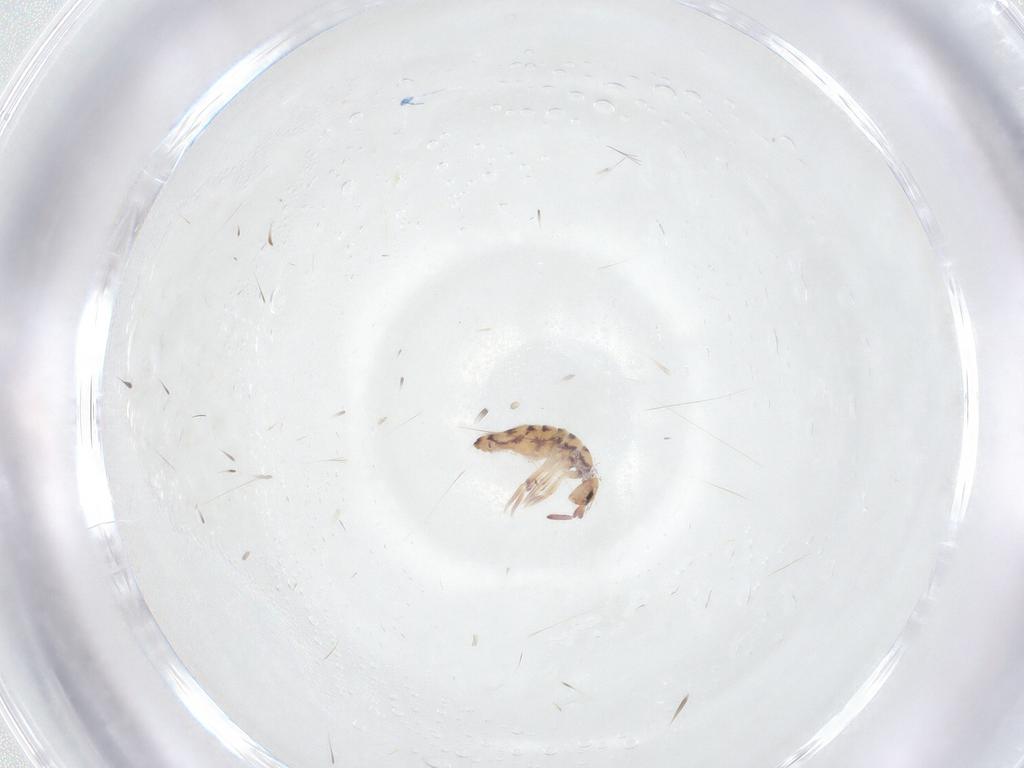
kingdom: Animalia
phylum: Arthropoda
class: Collembola
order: Entomobryomorpha
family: Entomobryidae
